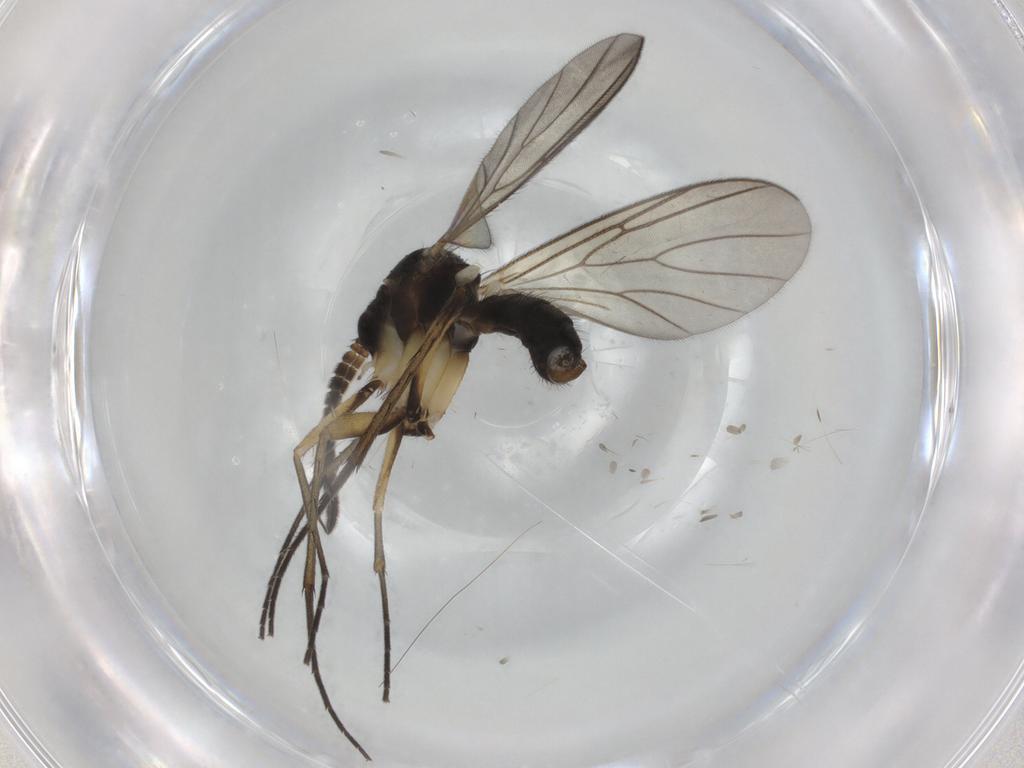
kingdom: Animalia
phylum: Arthropoda
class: Insecta
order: Diptera
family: Mycetophilidae
